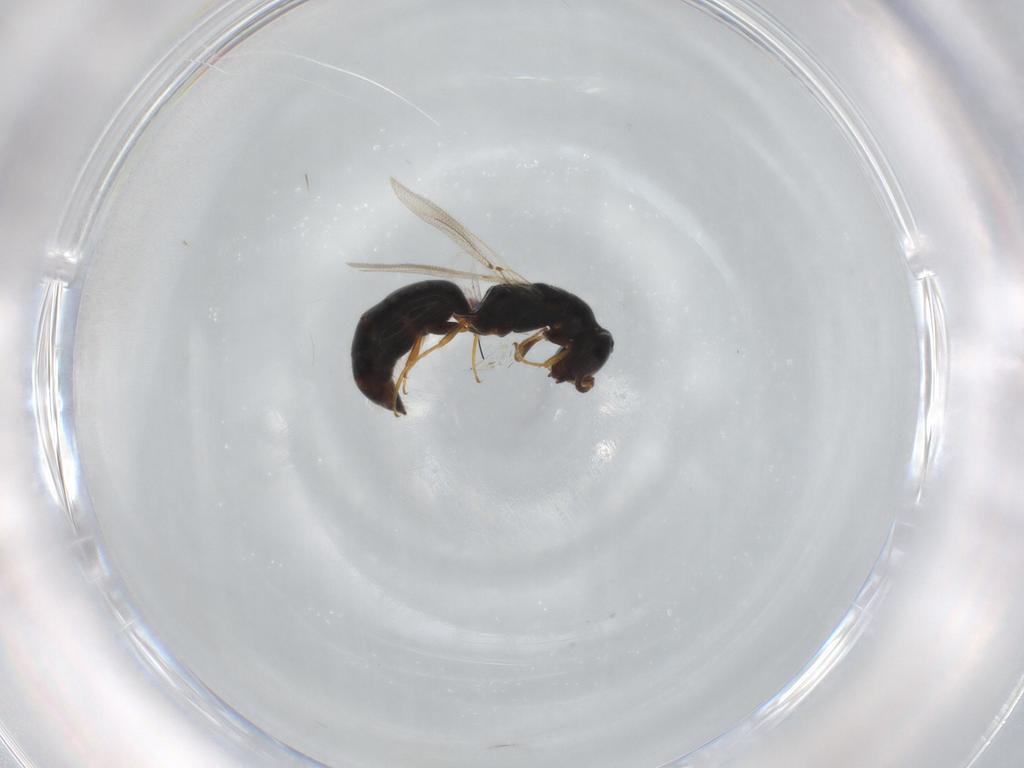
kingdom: Animalia
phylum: Arthropoda
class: Insecta
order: Hymenoptera
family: Bethylidae
